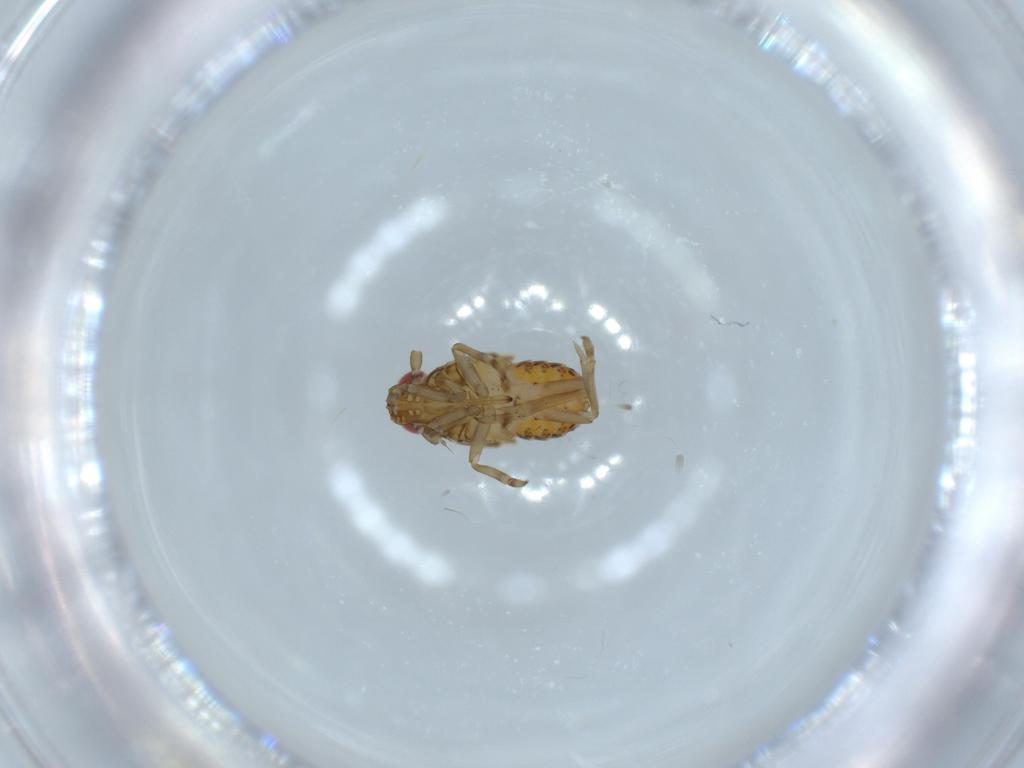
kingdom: Animalia
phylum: Arthropoda
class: Insecta
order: Hemiptera
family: Delphacidae
